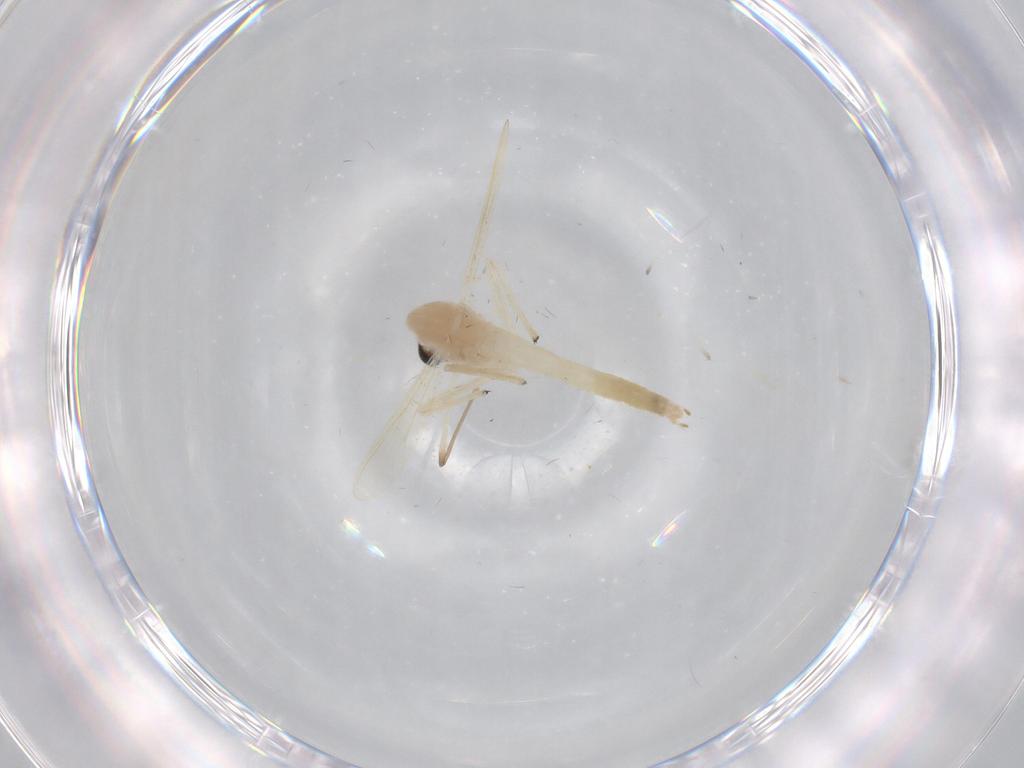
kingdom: Animalia
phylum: Arthropoda
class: Insecta
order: Diptera
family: Chironomidae
